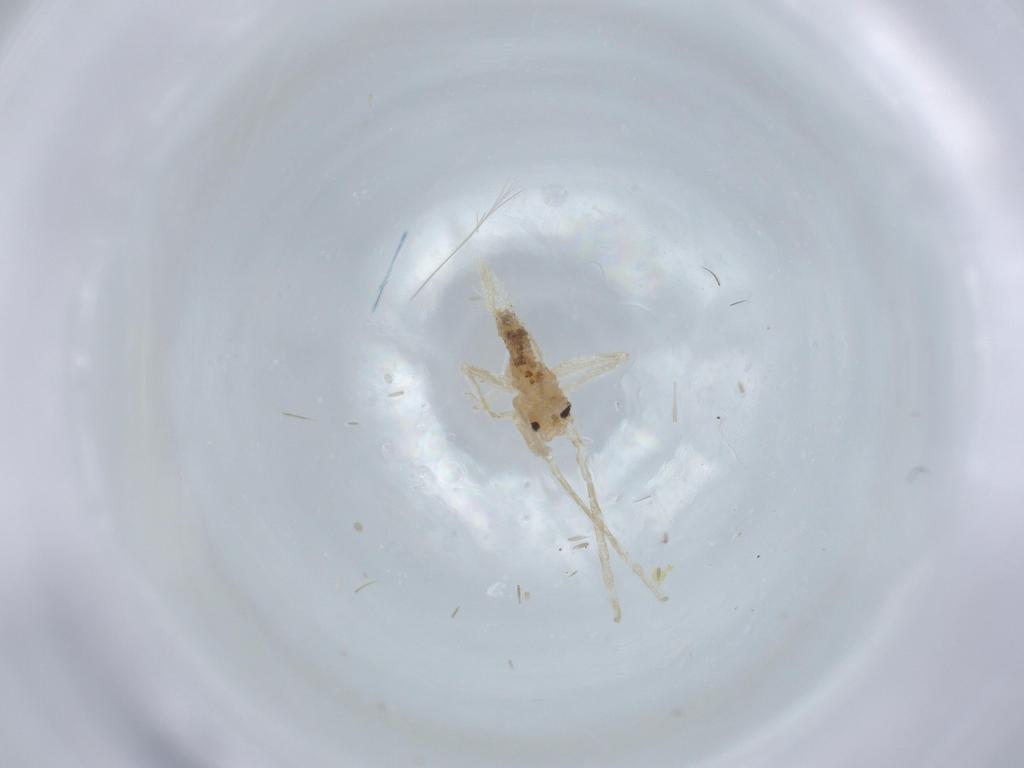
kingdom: Animalia
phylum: Arthropoda
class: Insecta
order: Orthoptera
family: Trigonidiidae
